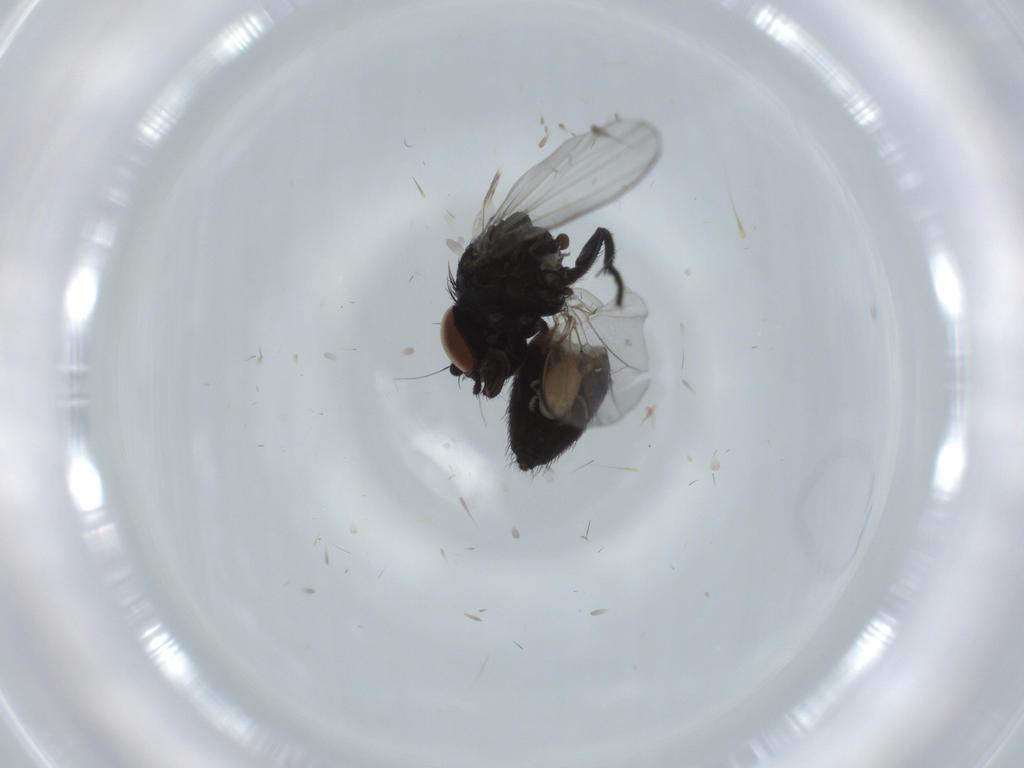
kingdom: Animalia
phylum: Arthropoda
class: Insecta
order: Diptera
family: Milichiidae
